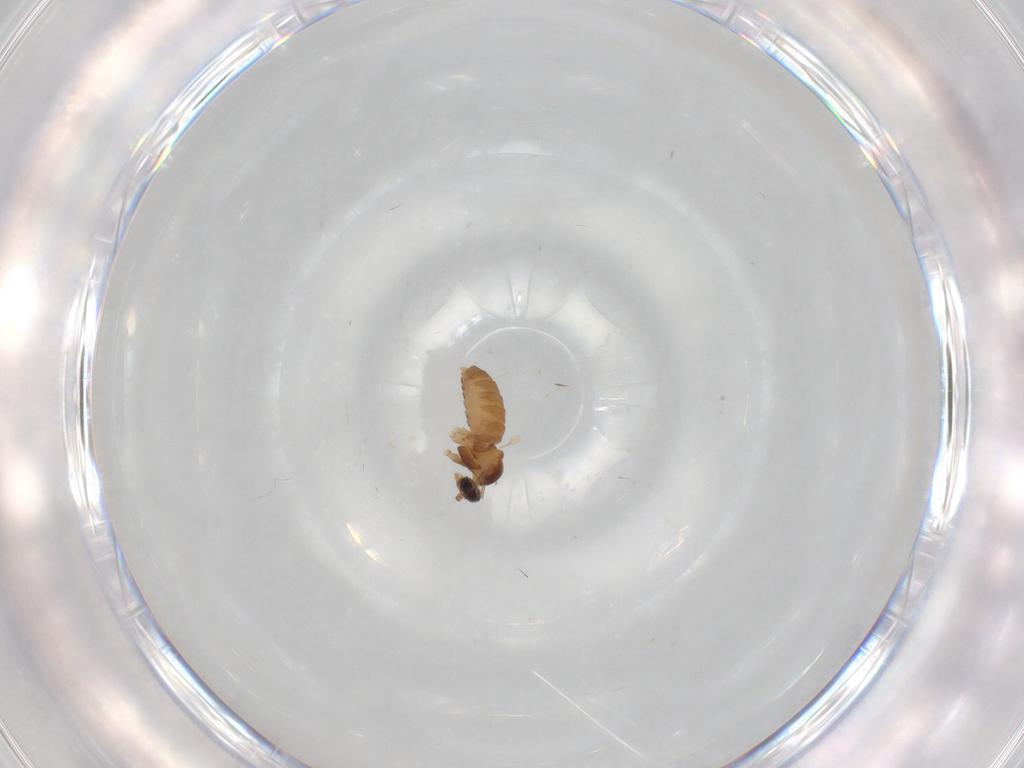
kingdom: Animalia
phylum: Arthropoda
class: Insecta
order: Diptera
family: Cecidomyiidae
